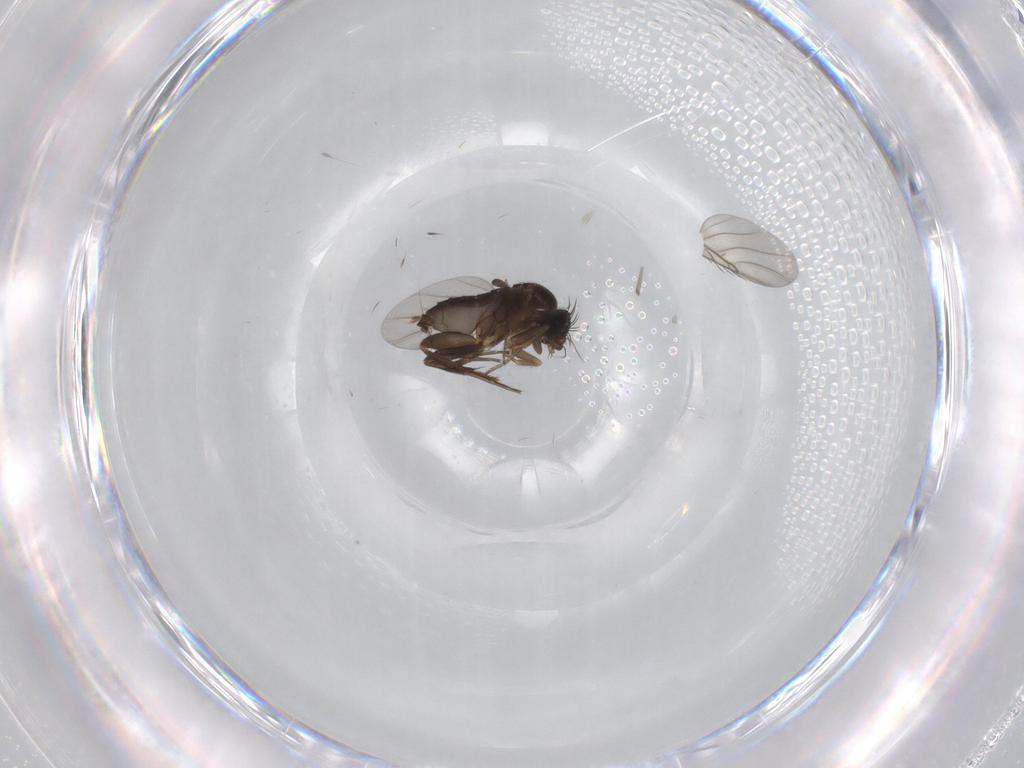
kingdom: Animalia
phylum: Arthropoda
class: Insecta
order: Diptera
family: Phoridae
